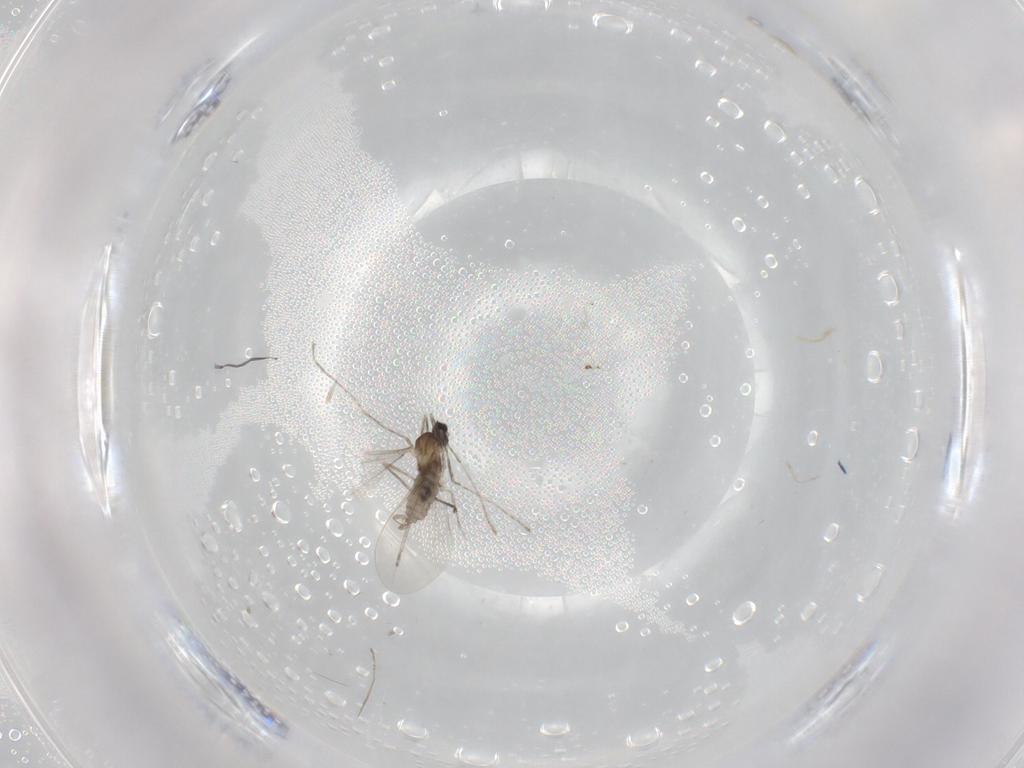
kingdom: Animalia
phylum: Arthropoda
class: Insecta
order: Diptera
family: Cecidomyiidae
